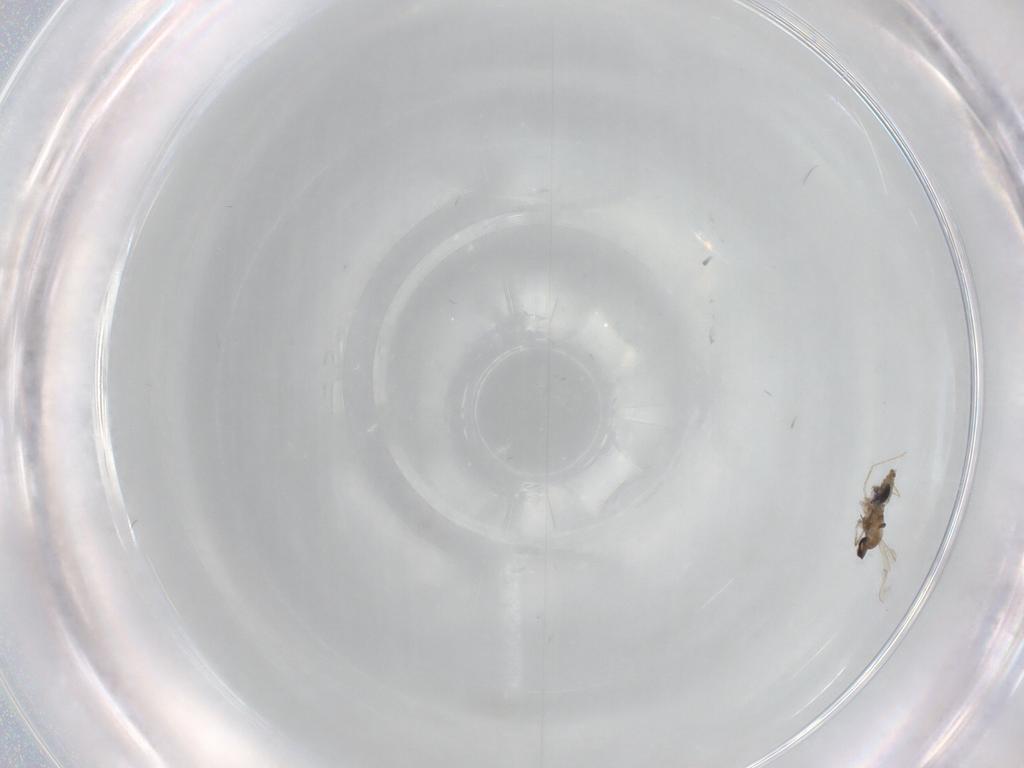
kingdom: Animalia
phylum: Arthropoda
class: Insecta
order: Diptera
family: Cecidomyiidae
